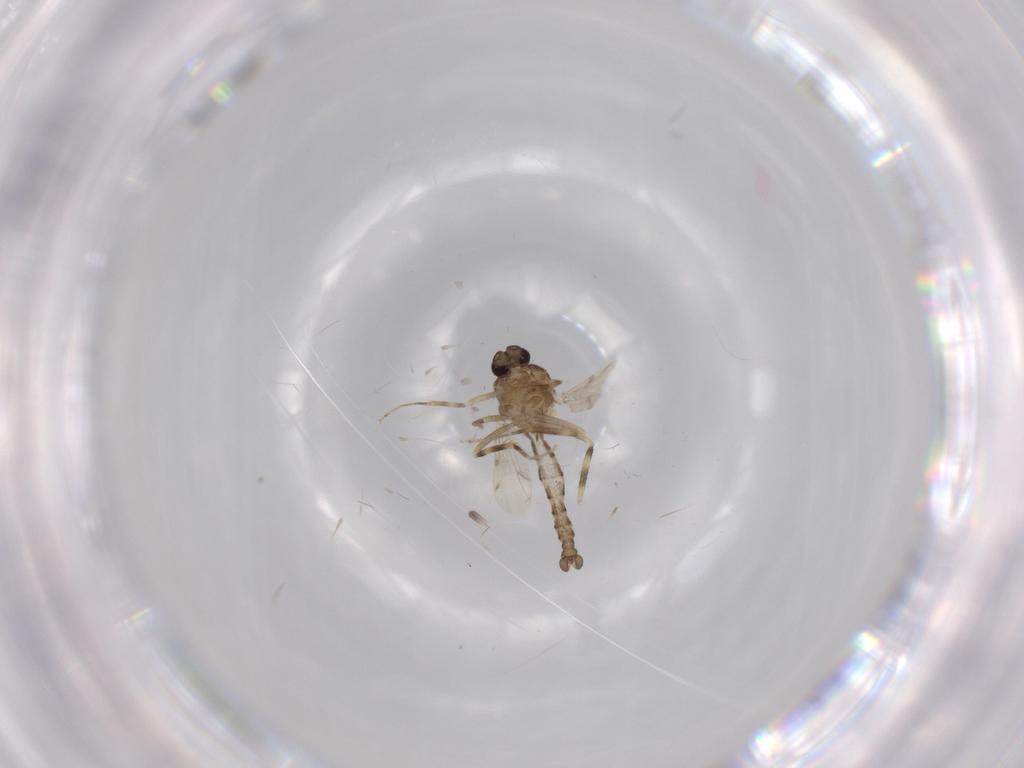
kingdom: Animalia
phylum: Arthropoda
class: Insecta
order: Diptera
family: Ceratopogonidae
